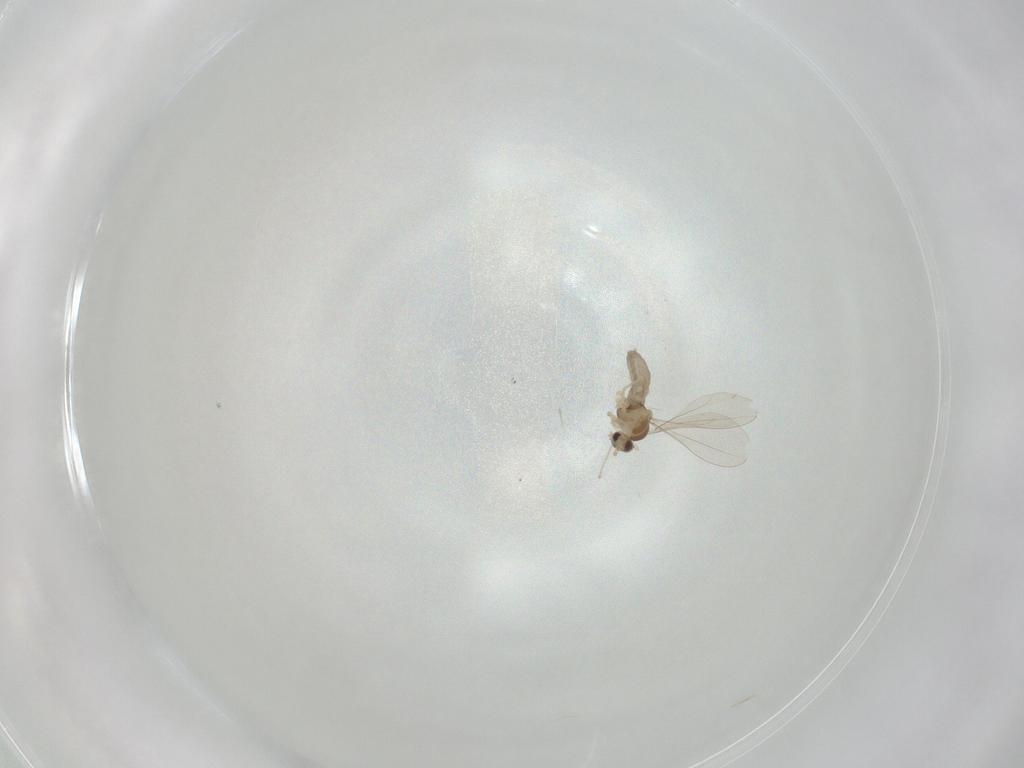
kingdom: Animalia
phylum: Arthropoda
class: Insecta
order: Diptera
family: Cecidomyiidae
